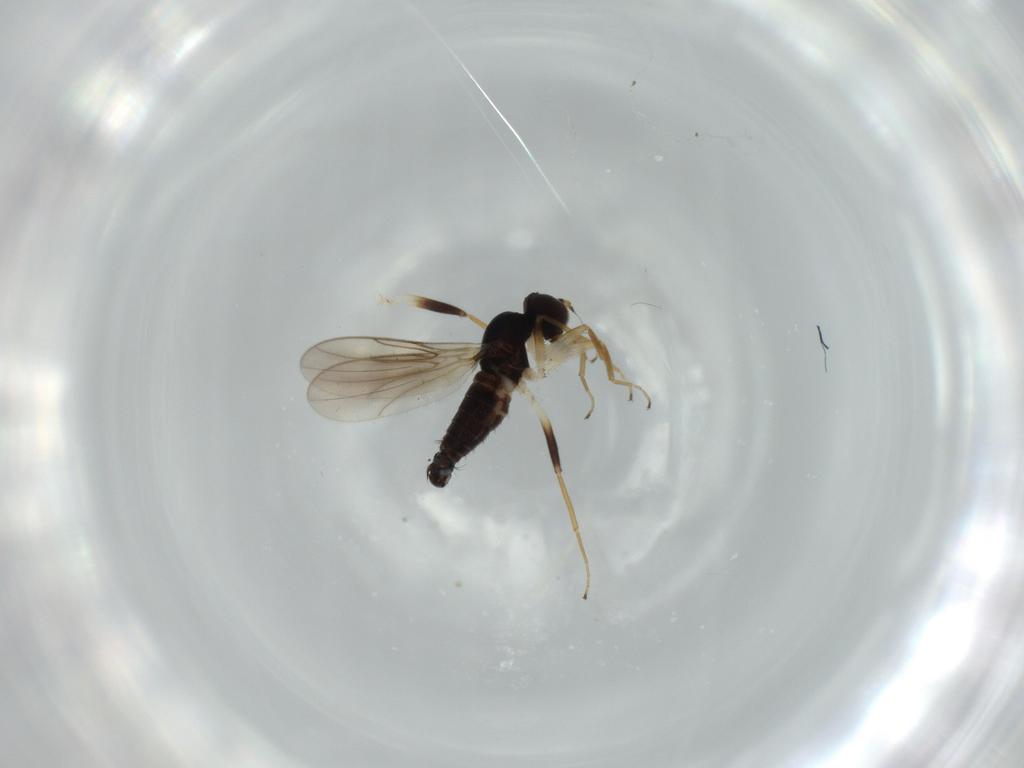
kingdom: Animalia
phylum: Arthropoda
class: Insecta
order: Diptera
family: Hybotidae
